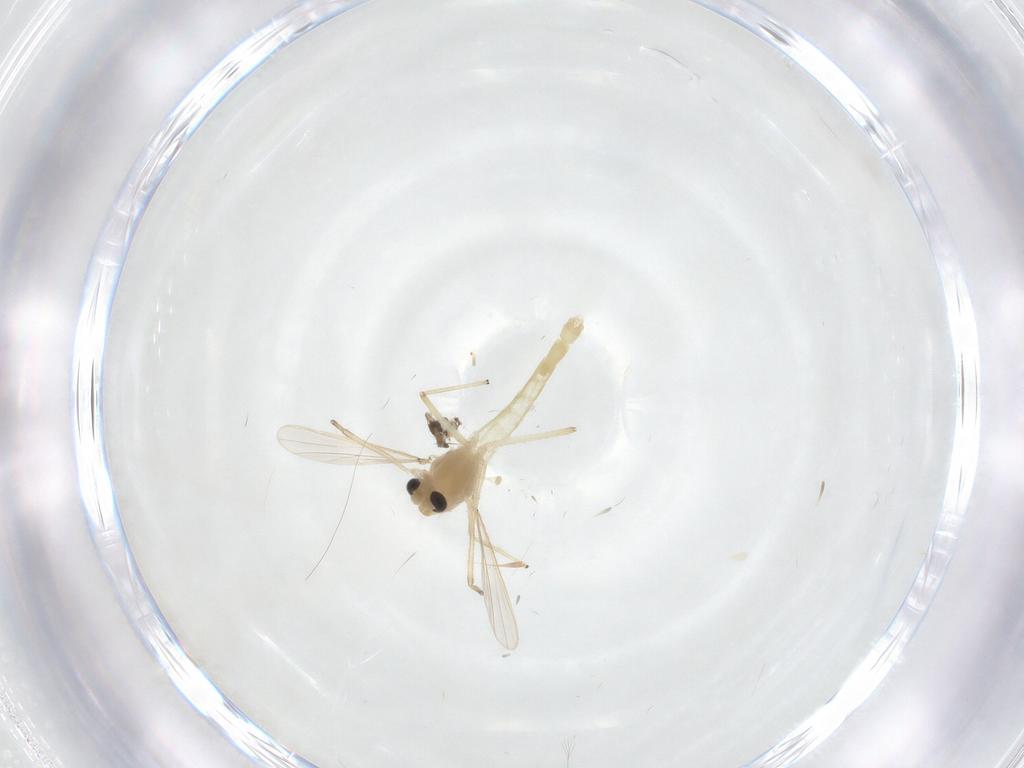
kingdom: Animalia
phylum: Arthropoda
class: Insecta
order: Diptera
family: Chironomidae
